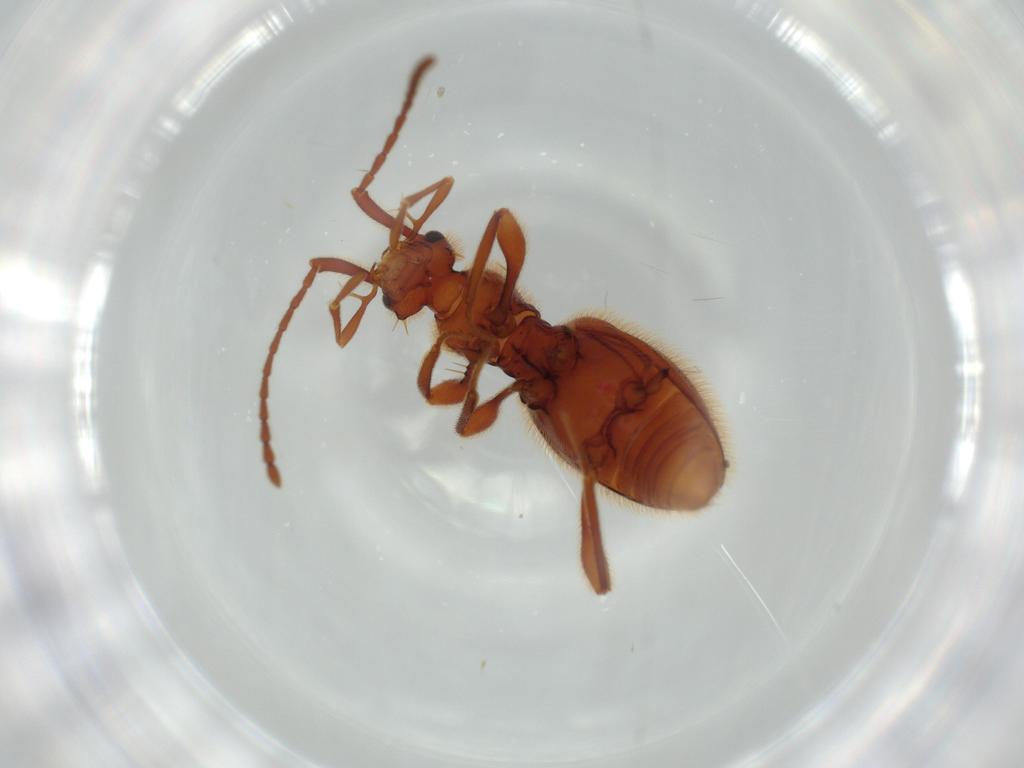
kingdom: Animalia
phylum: Arthropoda
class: Insecta
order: Coleoptera
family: Staphylinidae
